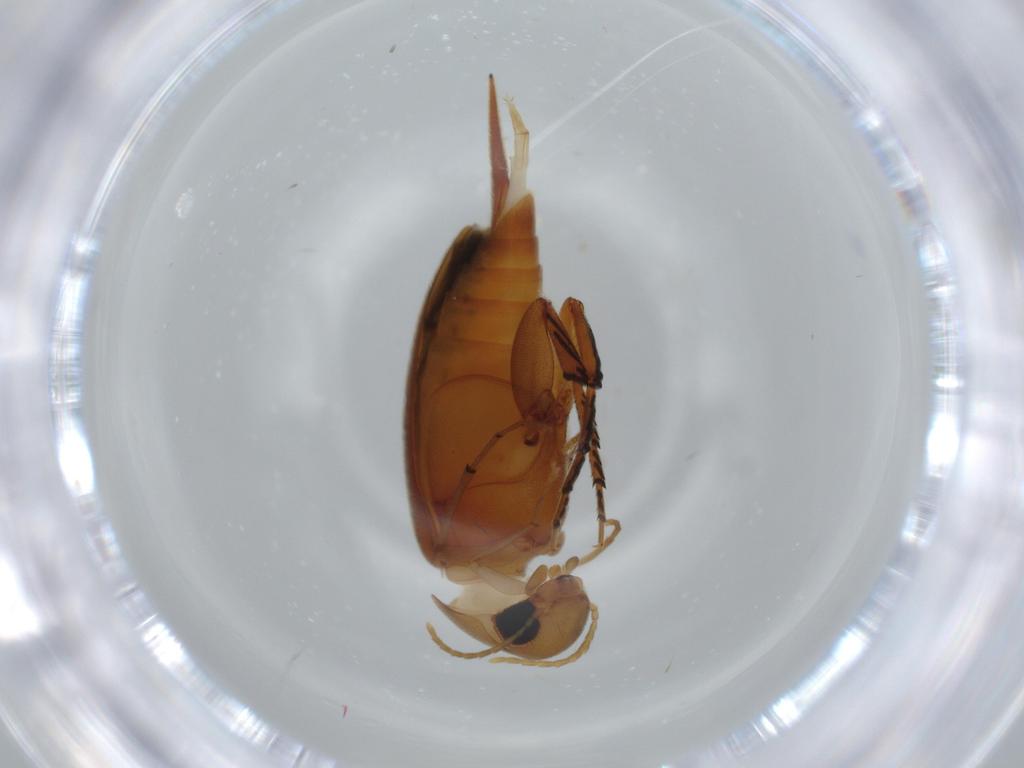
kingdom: Animalia
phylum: Arthropoda
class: Insecta
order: Coleoptera
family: Mordellidae
